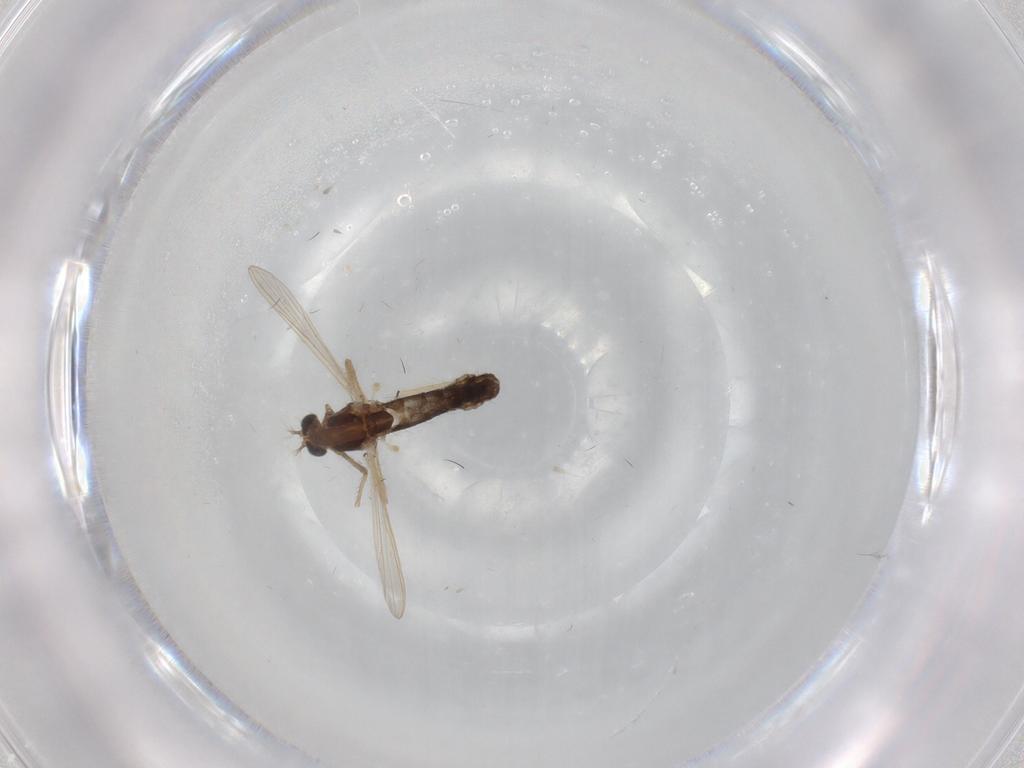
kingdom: Animalia
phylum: Arthropoda
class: Insecta
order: Diptera
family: Chironomidae
